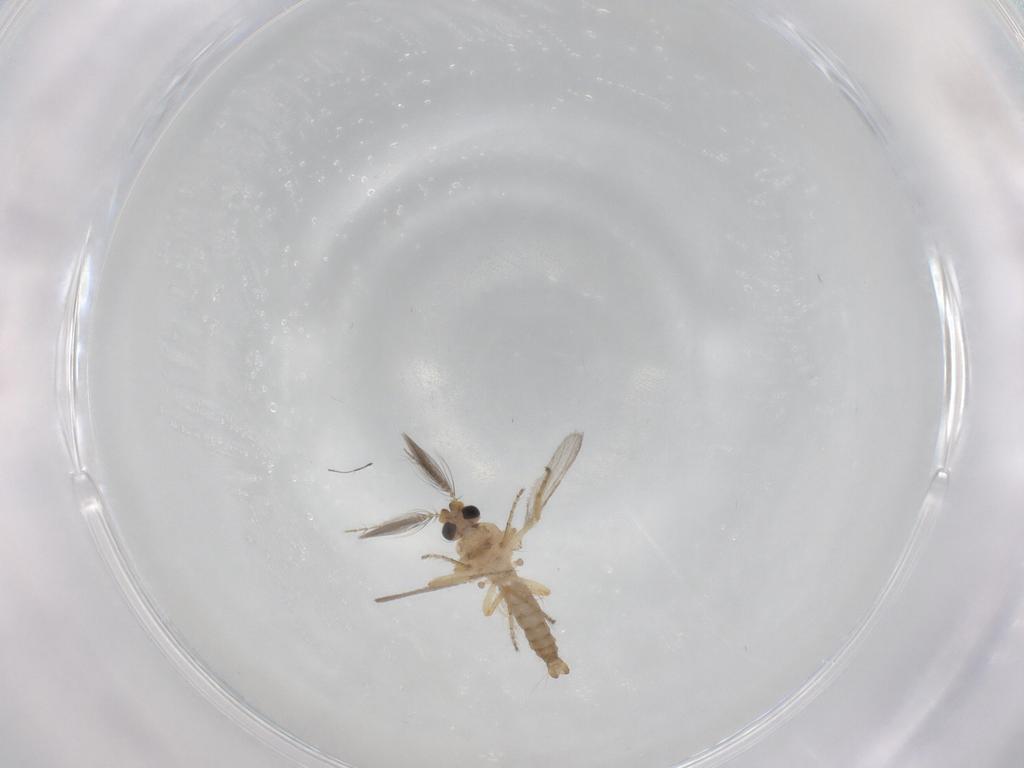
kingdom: Animalia
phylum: Arthropoda
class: Insecta
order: Diptera
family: Ceratopogonidae
